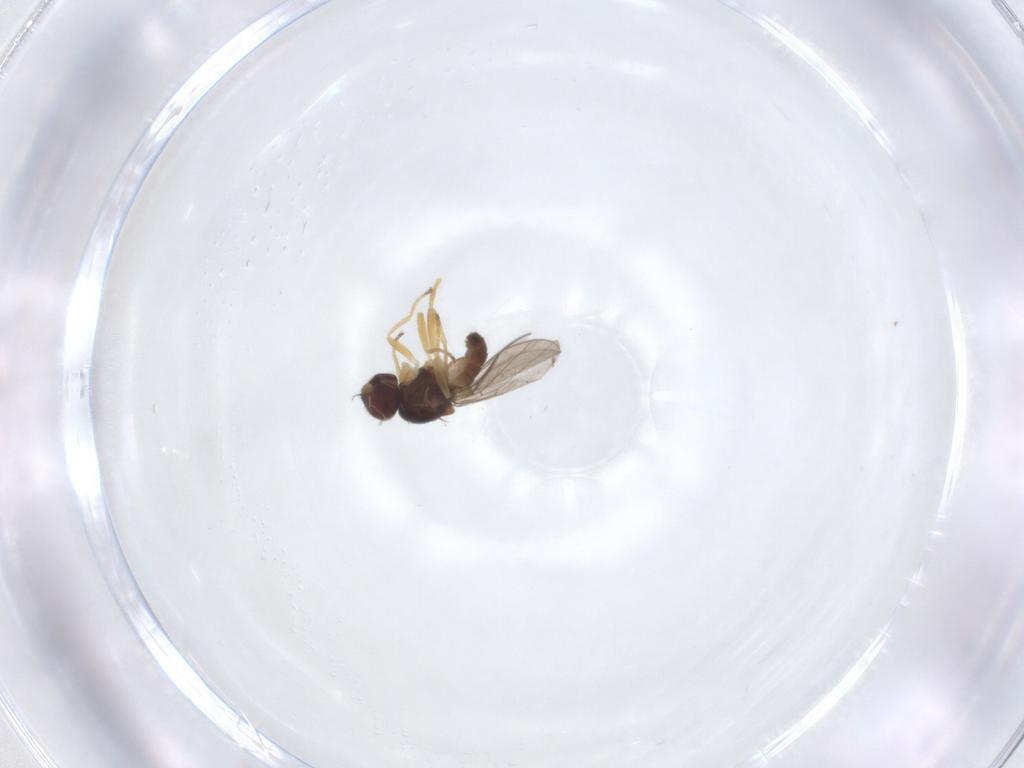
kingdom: Animalia
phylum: Arthropoda
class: Insecta
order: Diptera
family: Chloropidae
